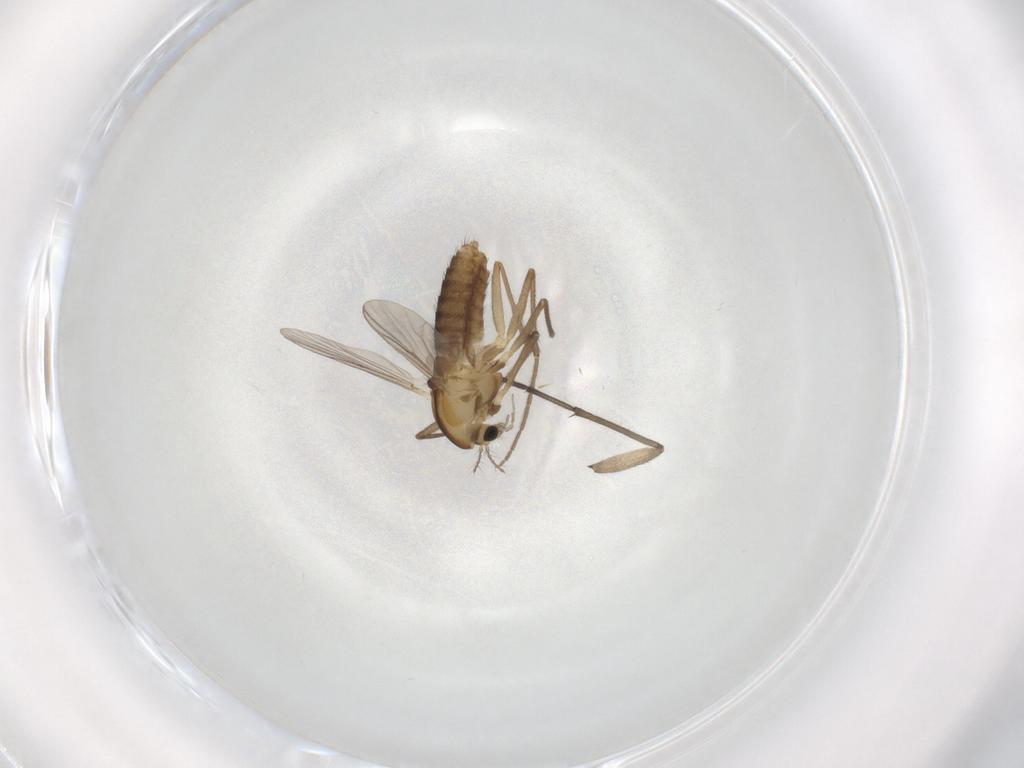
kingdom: Animalia
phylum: Arthropoda
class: Insecta
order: Diptera
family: Chironomidae
